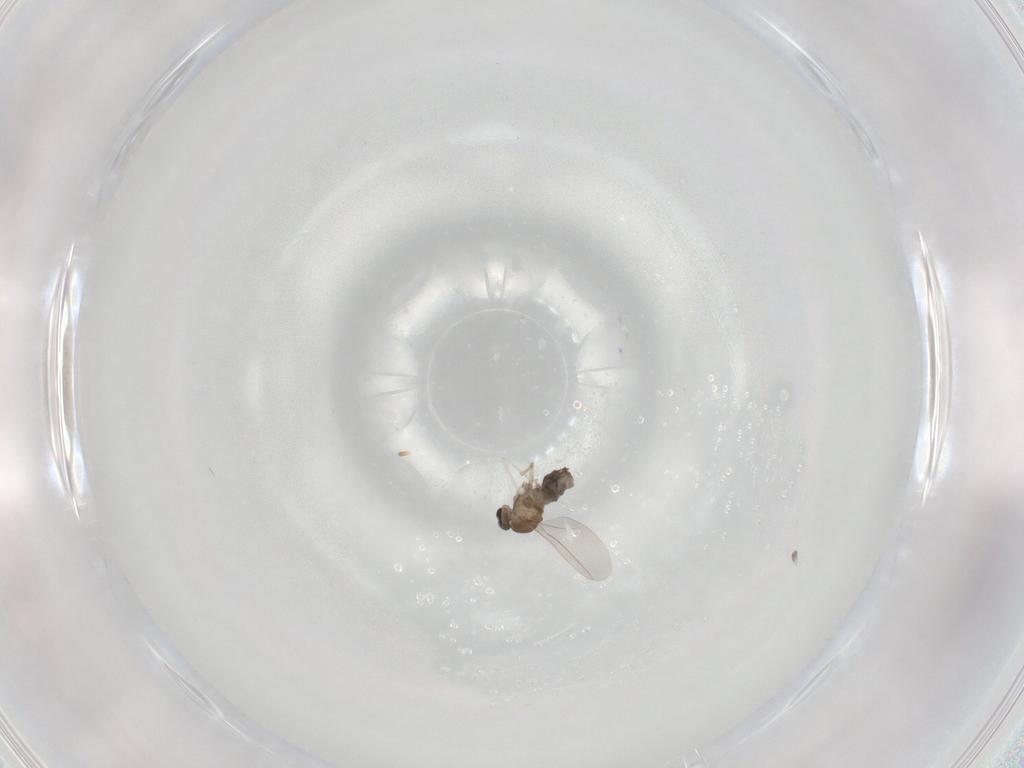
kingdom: Animalia
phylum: Arthropoda
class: Insecta
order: Diptera
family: Cecidomyiidae
